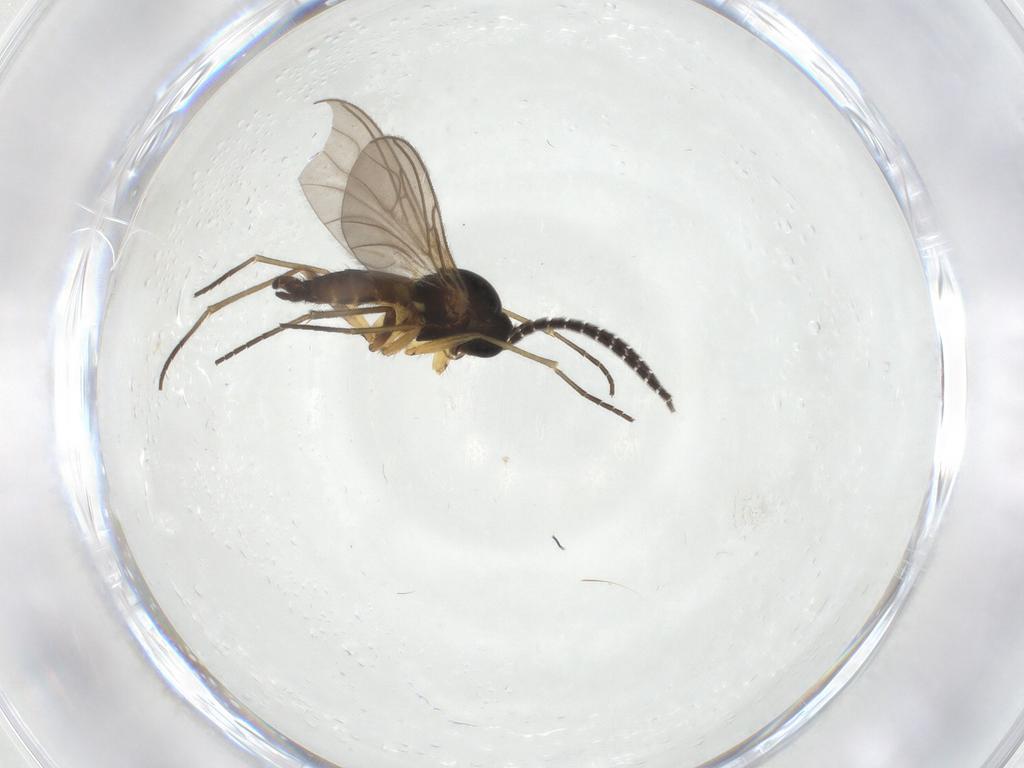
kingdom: Animalia
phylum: Arthropoda
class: Insecta
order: Diptera
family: Sciaridae
